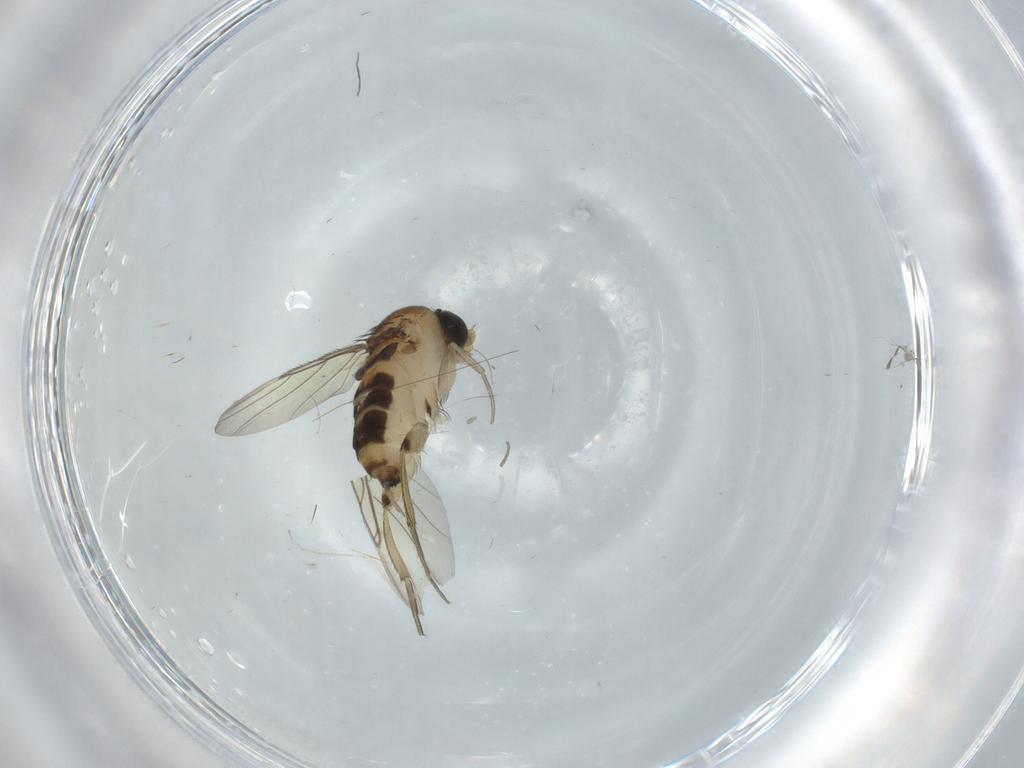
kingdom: Animalia
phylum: Arthropoda
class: Insecta
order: Diptera
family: Phoridae
